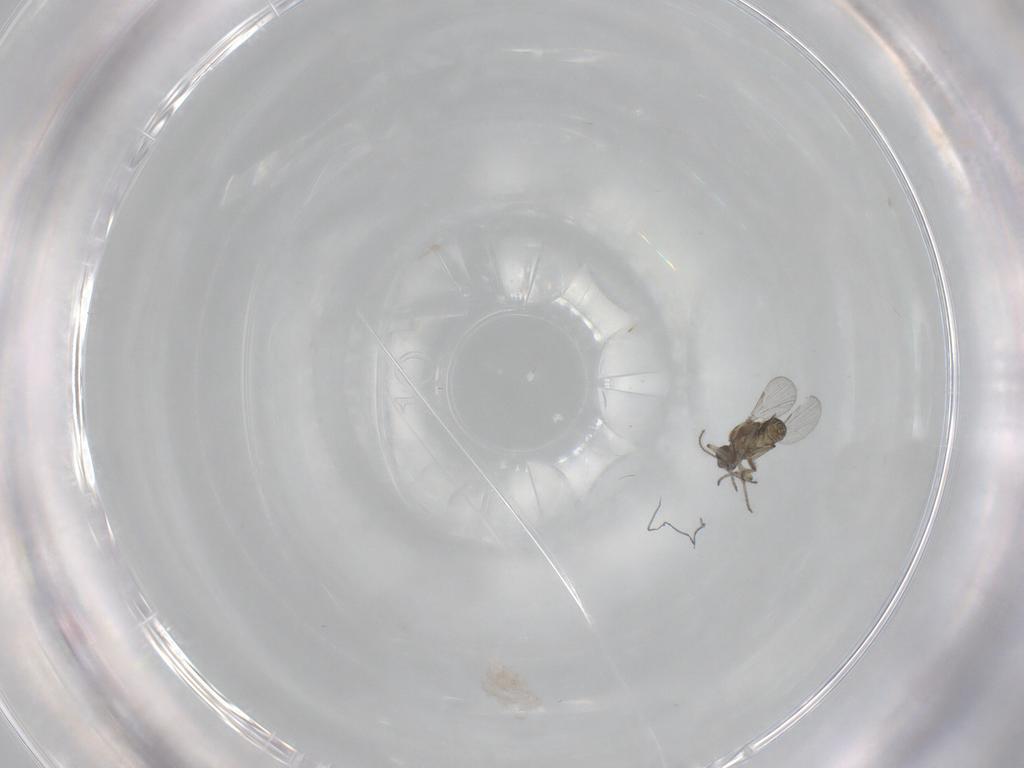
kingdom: Animalia
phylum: Arthropoda
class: Insecta
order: Diptera
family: Ceratopogonidae
